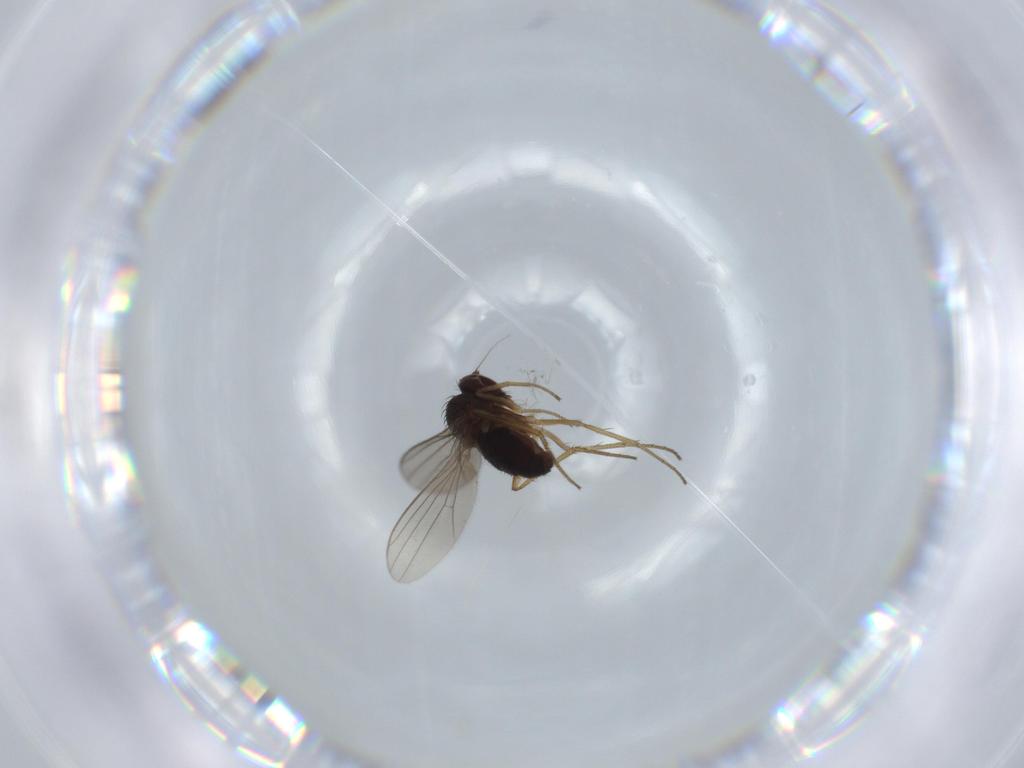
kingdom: Animalia
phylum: Arthropoda
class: Insecta
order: Diptera
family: Dolichopodidae
